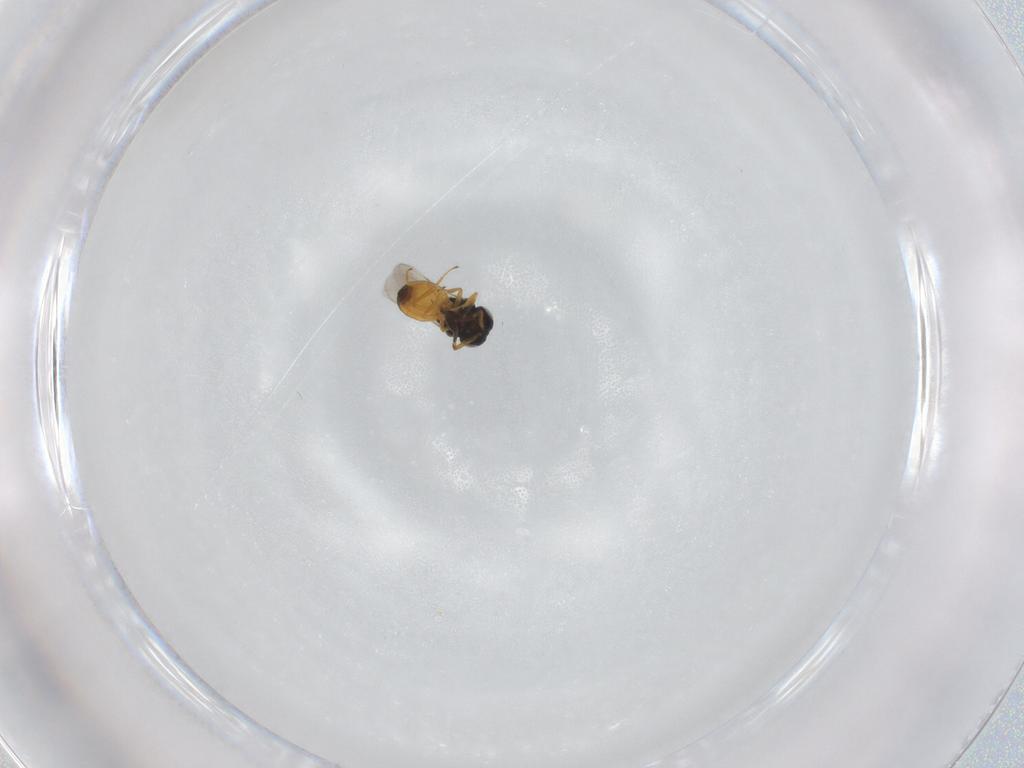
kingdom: Animalia
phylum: Arthropoda
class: Insecta
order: Hymenoptera
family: Scelionidae
